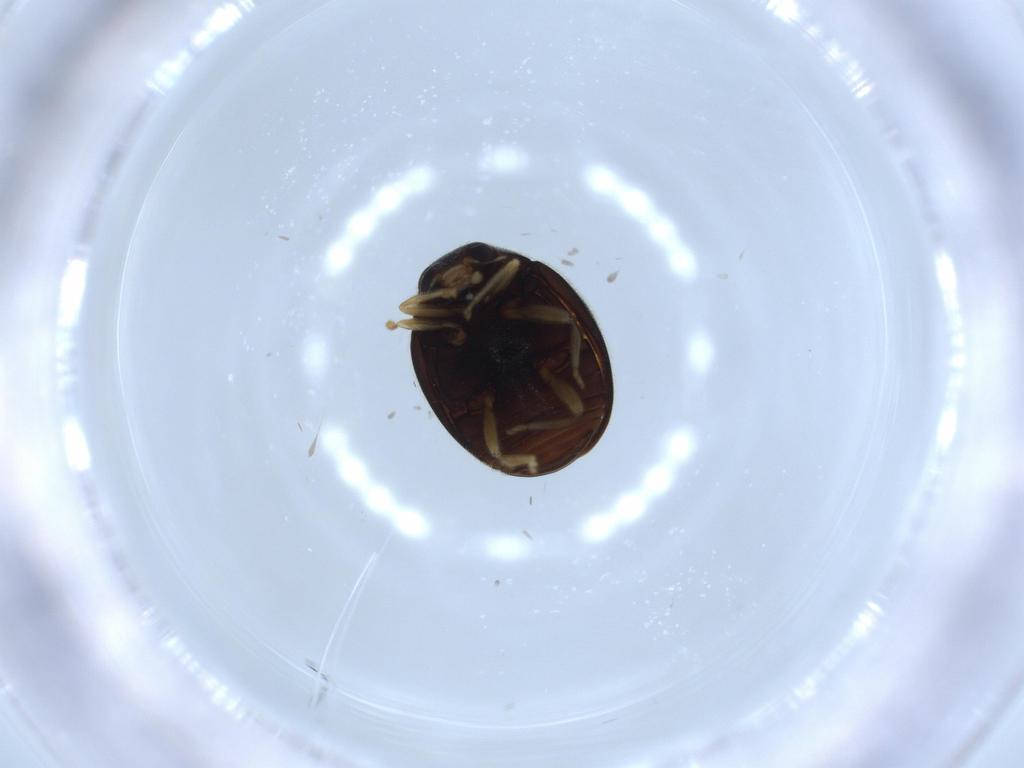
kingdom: Animalia
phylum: Arthropoda
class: Insecta
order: Coleoptera
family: Coccinellidae
